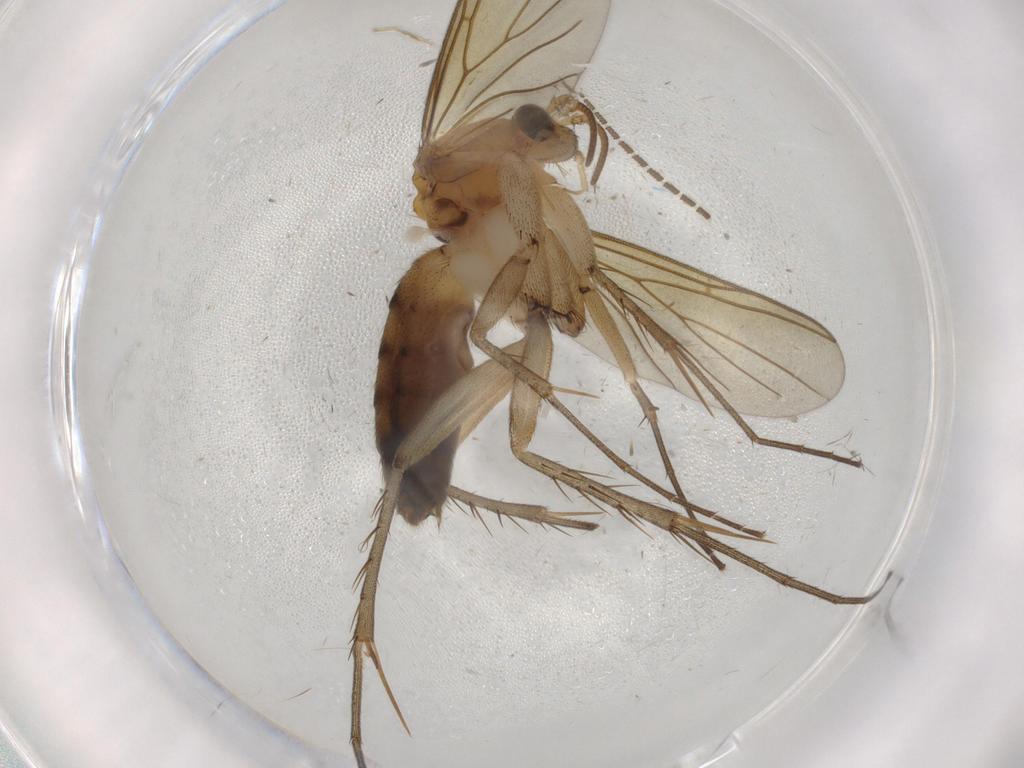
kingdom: Animalia
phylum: Arthropoda
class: Insecta
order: Diptera
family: Mycetophilidae
